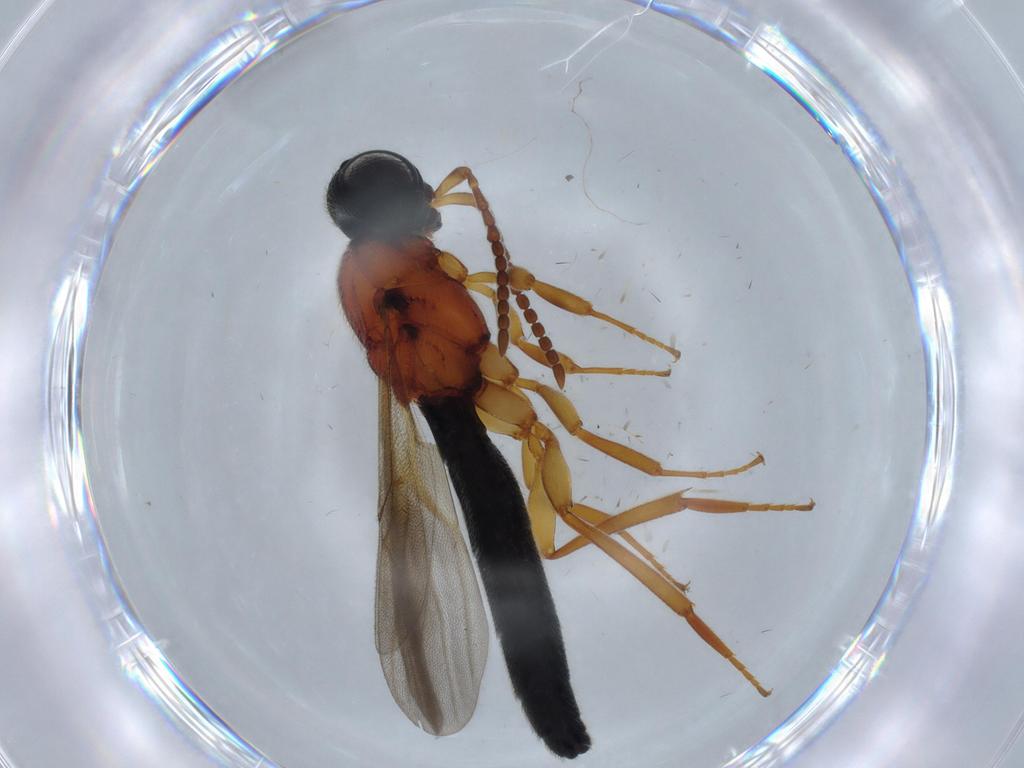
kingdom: Animalia
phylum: Arthropoda
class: Insecta
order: Hymenoptera
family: Scelionidae
